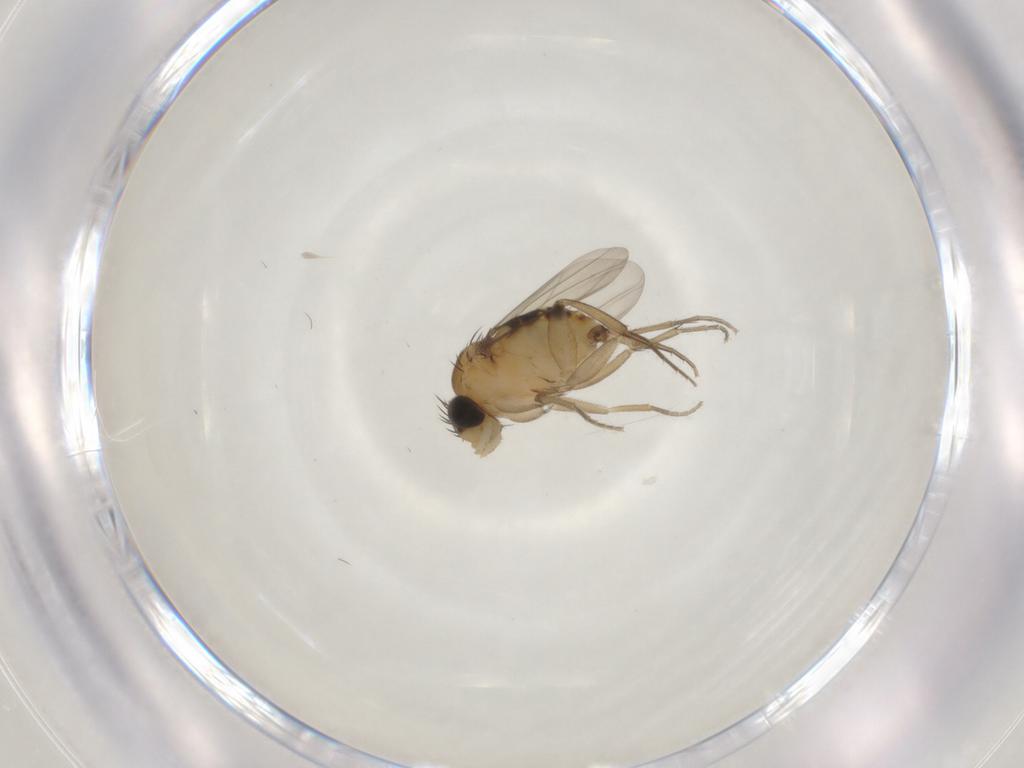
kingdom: Animalia
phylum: Arthropoda
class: Insecta
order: Diptera
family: Phoridae
